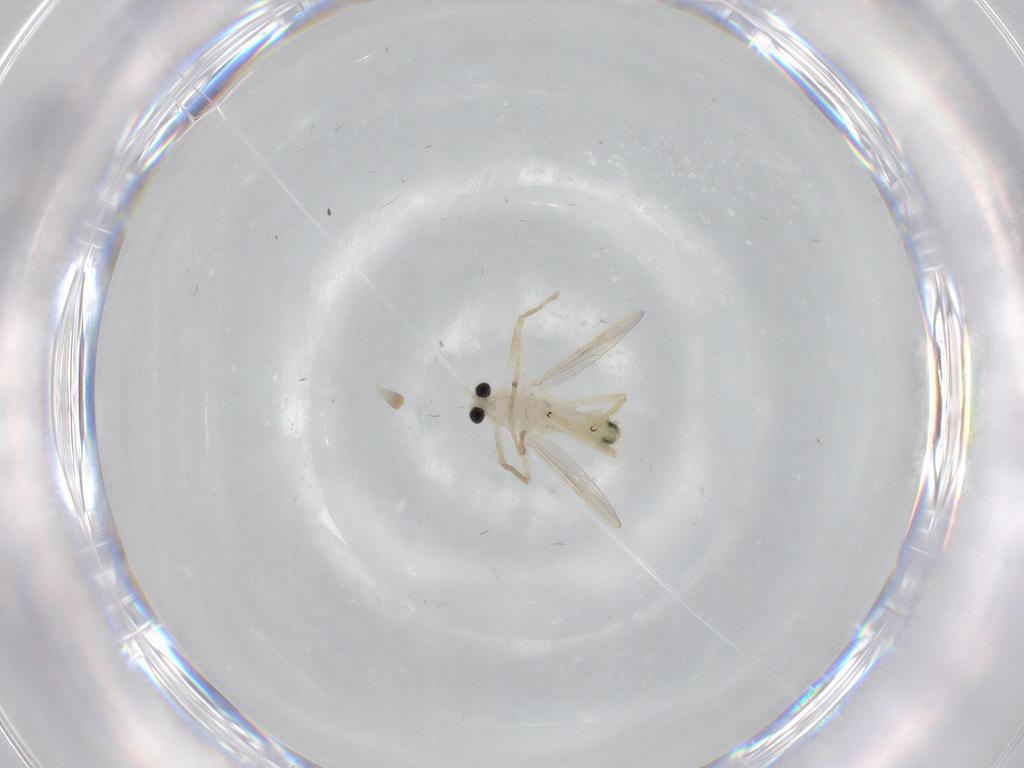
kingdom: Animalia
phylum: Arthropoda
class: Insecta
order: Diptera
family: Chironomidae
